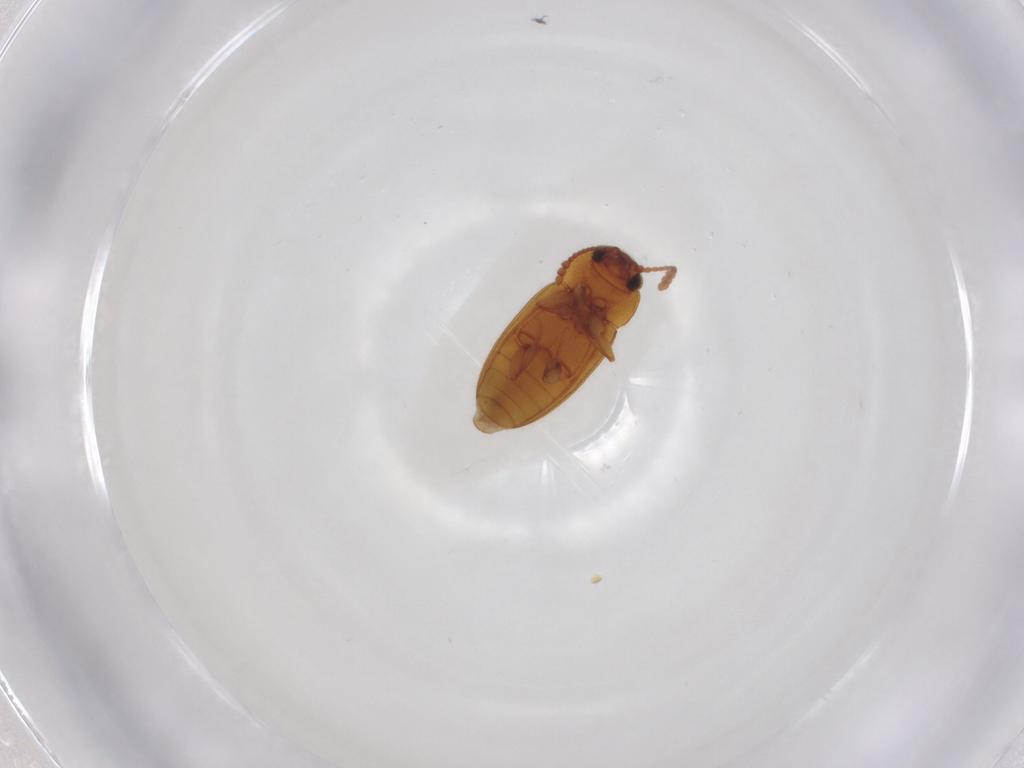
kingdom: Animalia
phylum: Arthropoda
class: Insecta
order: Coleoptera
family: Erotylidae
